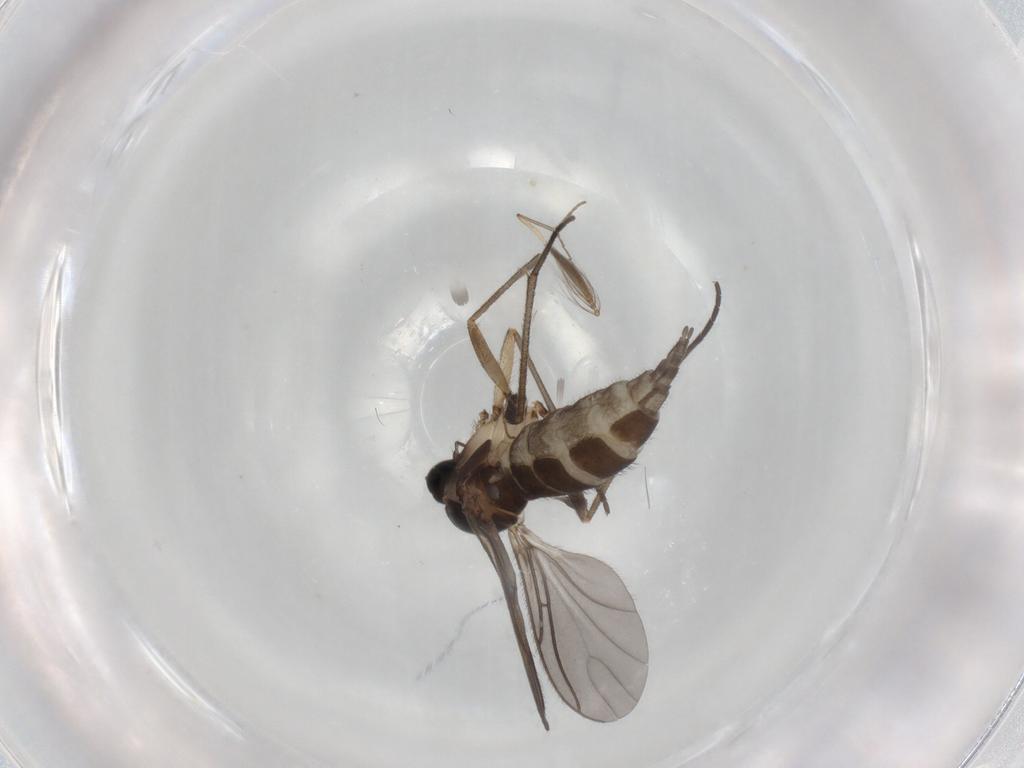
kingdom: Animalia
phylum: Arthropoda
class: Insecta
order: Diptera
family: Sciaridae
